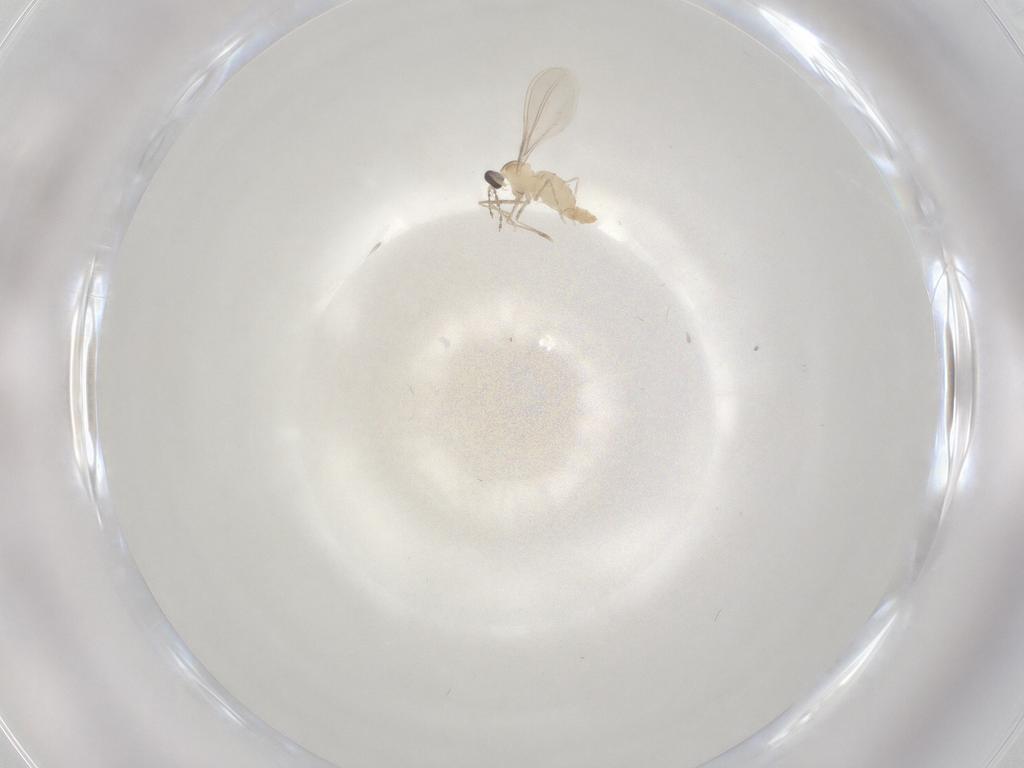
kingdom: Animalia
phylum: Arthropoda
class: Insecta
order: Diptera
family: Cecidomyiidae
